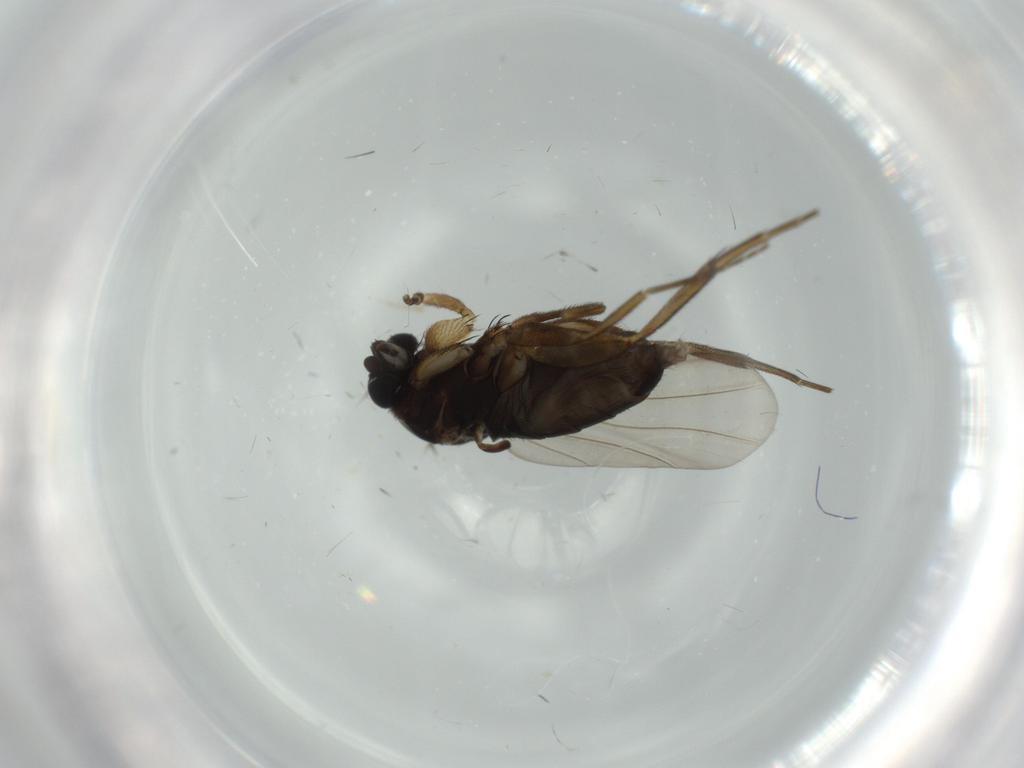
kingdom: Animalia
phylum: Arthropoda
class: Insecta
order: Diptera
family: Phoridae
